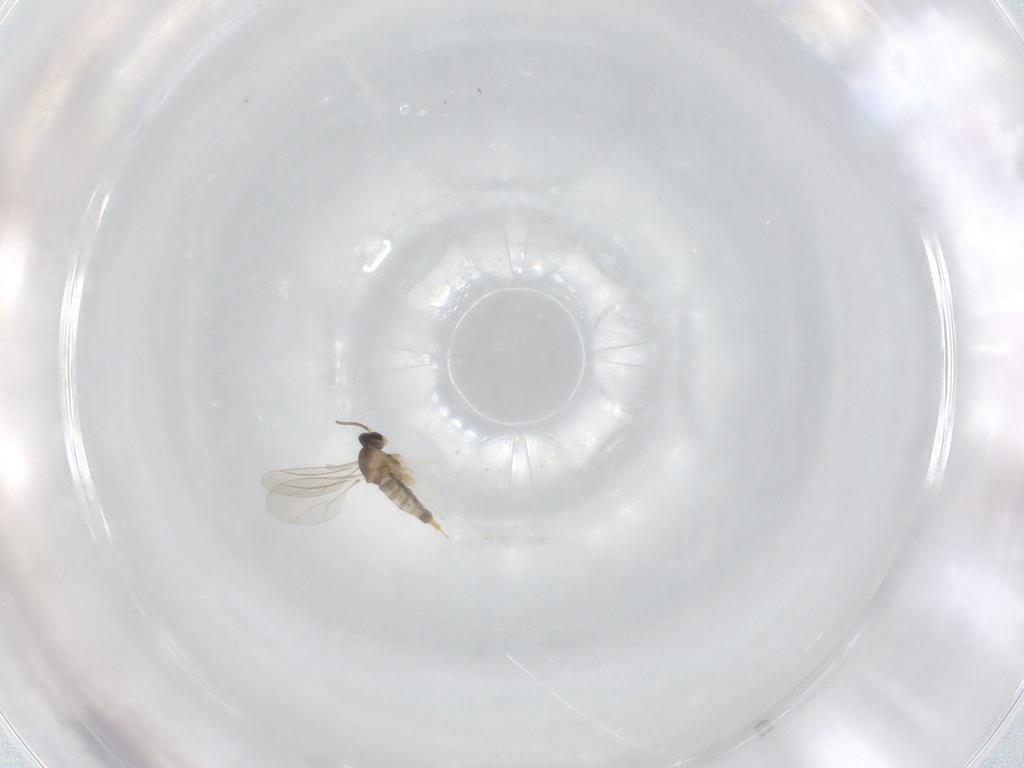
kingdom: Animalia
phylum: Arthropoda
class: Insecta
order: Diptera
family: Cecidomyiidae
